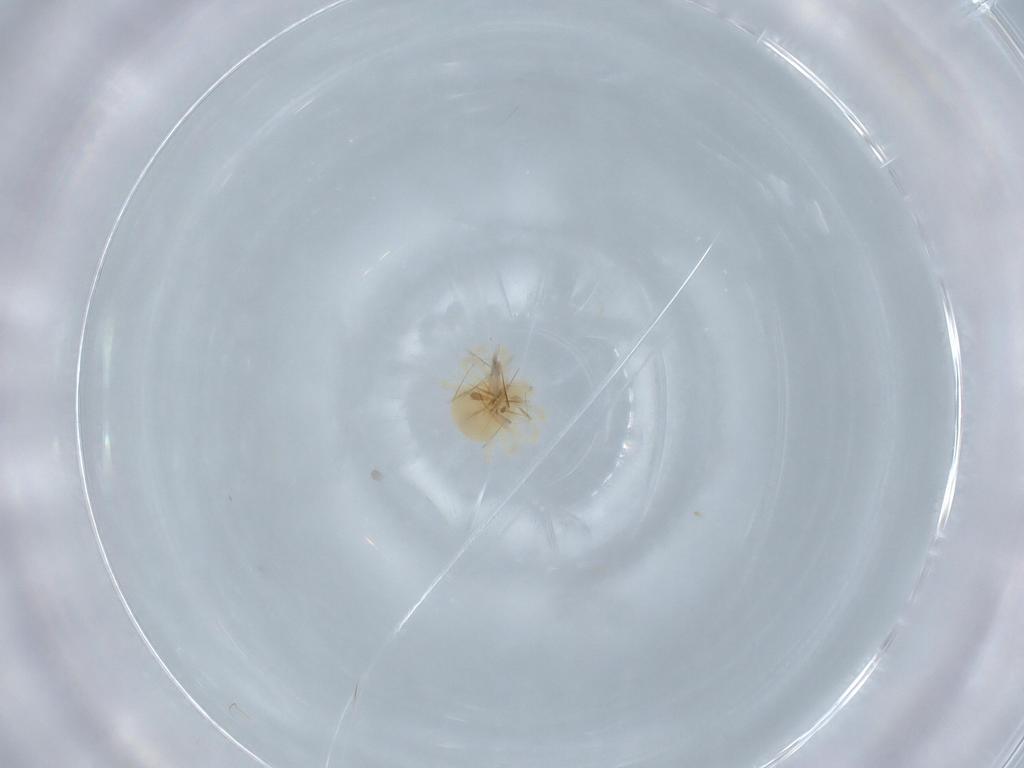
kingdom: Animalia
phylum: Arthropoda
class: Arachnida
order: Trombidiformes
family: Anystidae
